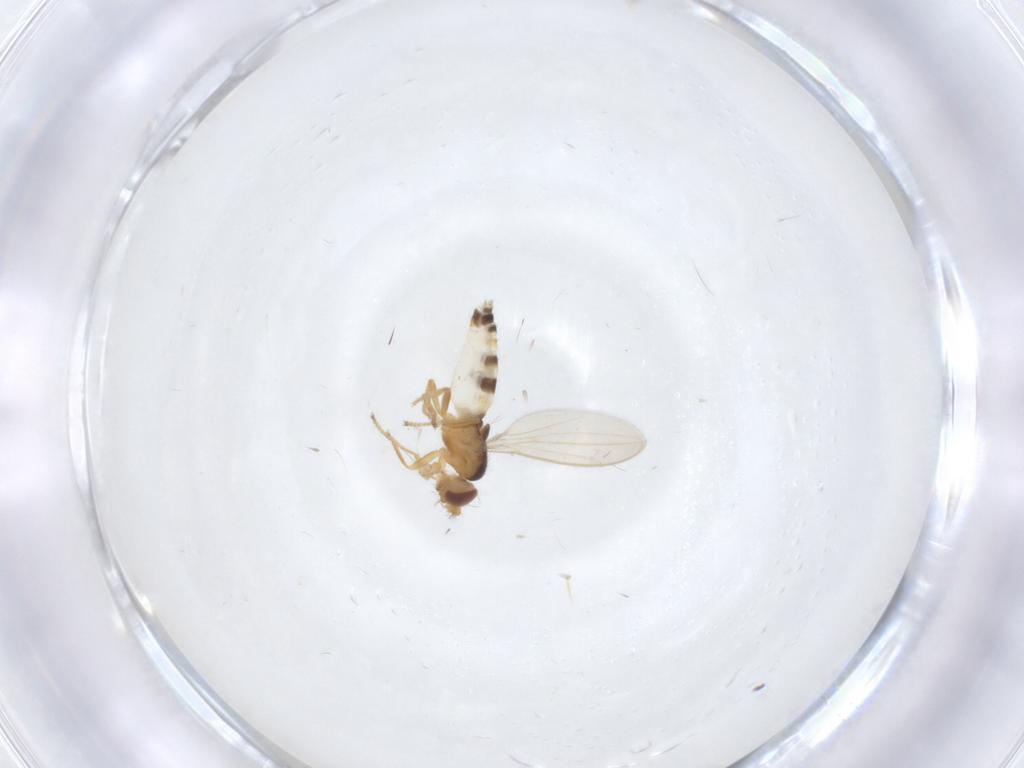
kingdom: Animalia
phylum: Arthropoda
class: Insecta
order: Diptera
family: Periscelididae
